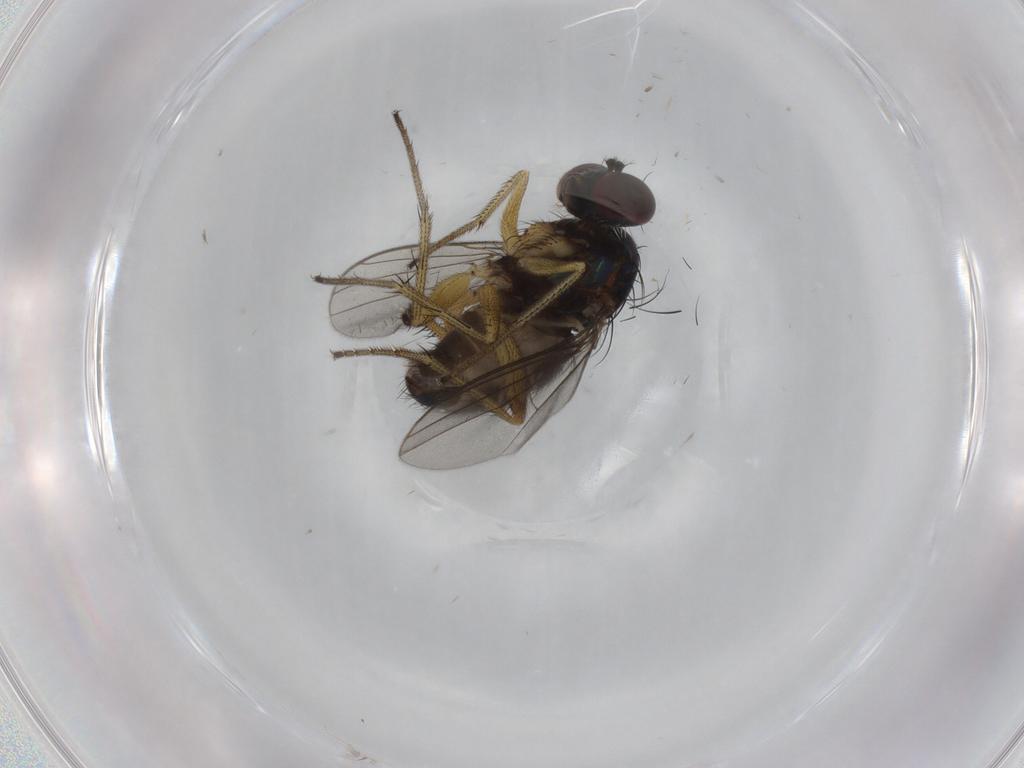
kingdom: Animalia
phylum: Arthropoda
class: Insecta
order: Diptera
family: Dolichopodidae
